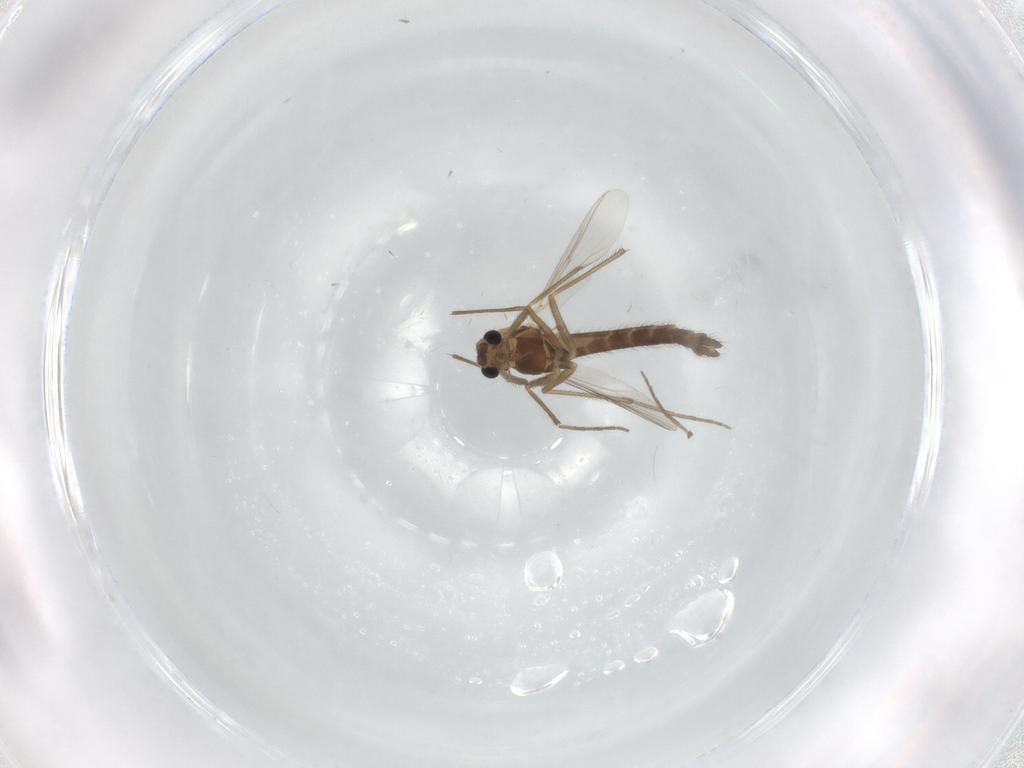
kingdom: Animalia
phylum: Arthropoda
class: Insecta
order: Diptera
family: Chironomidae
